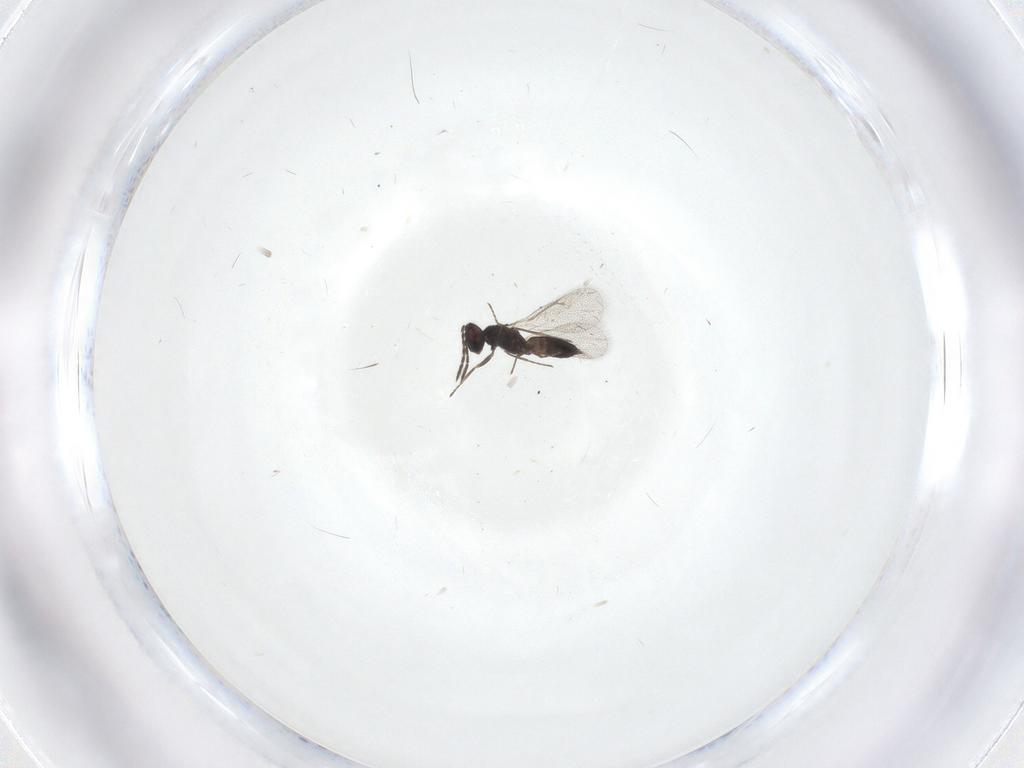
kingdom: Animalia
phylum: Arthropoda
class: Insecta
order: Hymenoptera
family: Eulophidae
